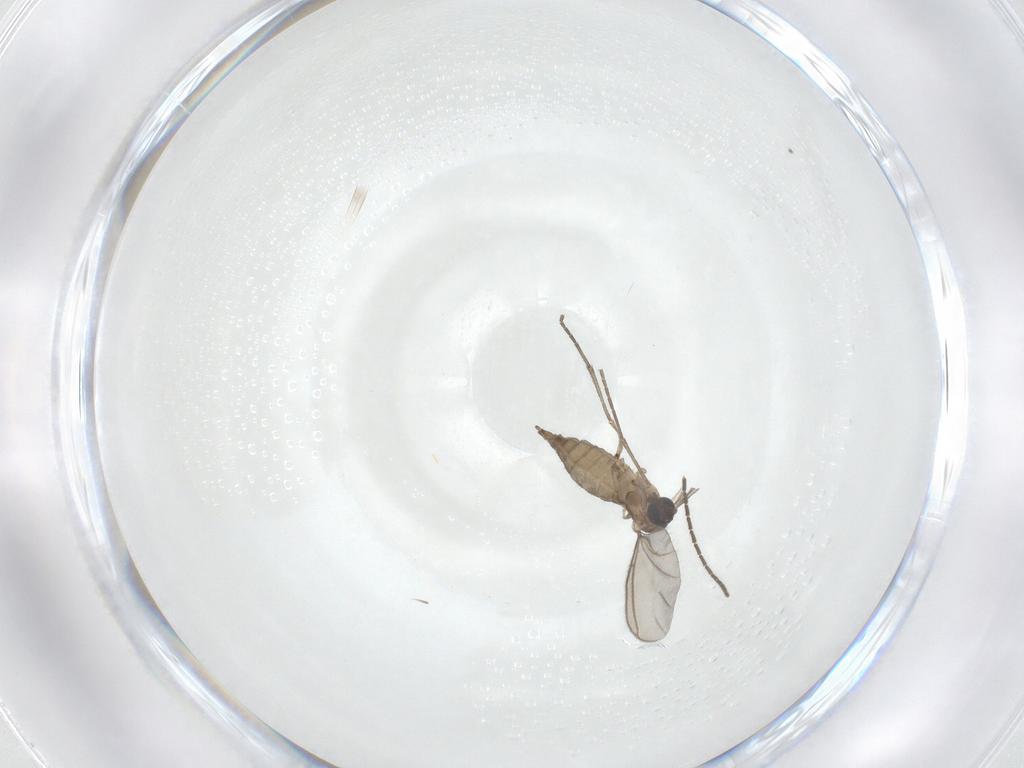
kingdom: Animalia
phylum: Arthropoda
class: Insecta
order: Diptera
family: Sciaridae
